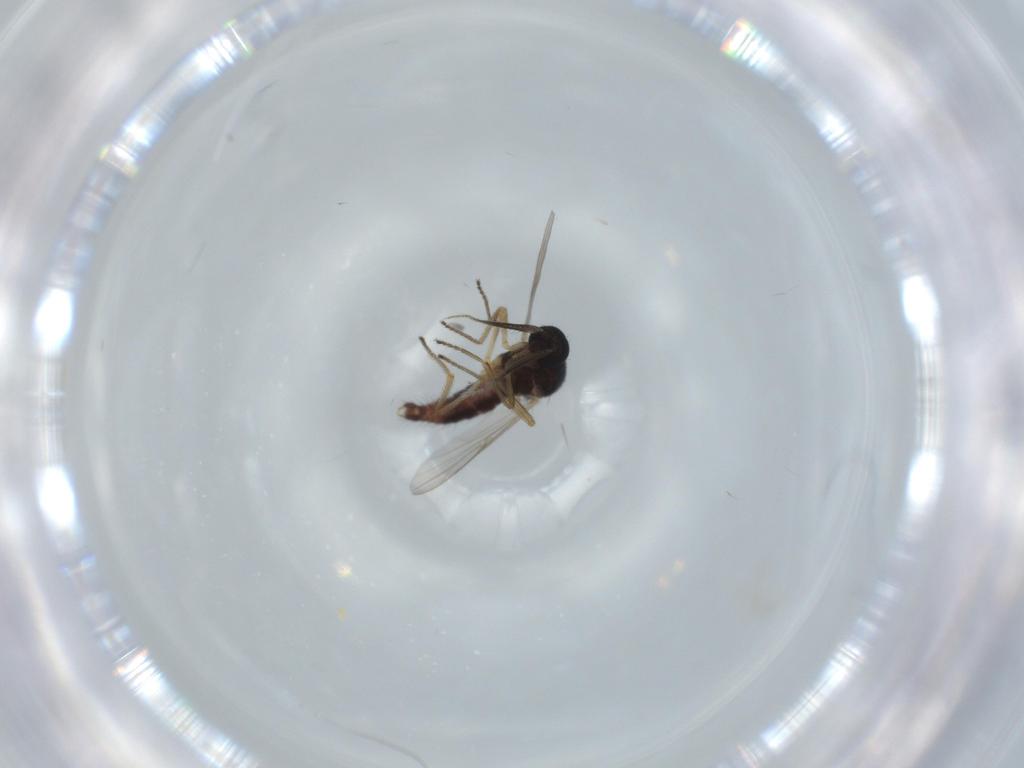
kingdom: Animalia
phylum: Arthropoda
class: Insecta
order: Diptera
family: Ceratopogonidae
